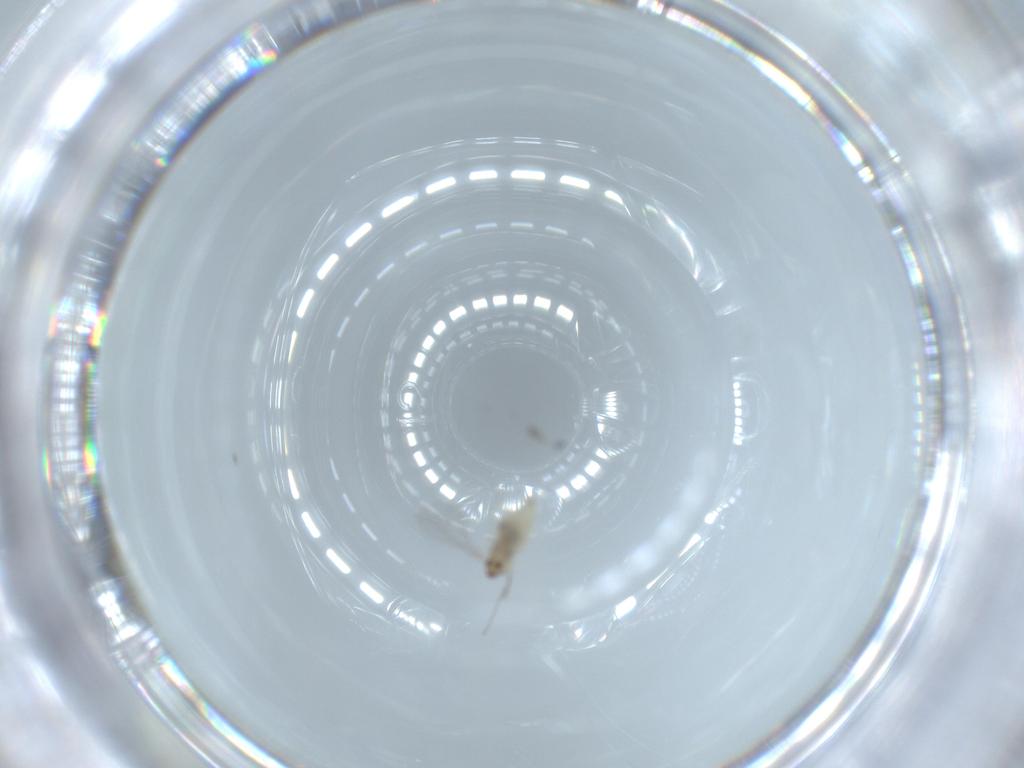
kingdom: Animalia
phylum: Arthropoda
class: Insecta
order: Diptera
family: Cecidomyiidae
